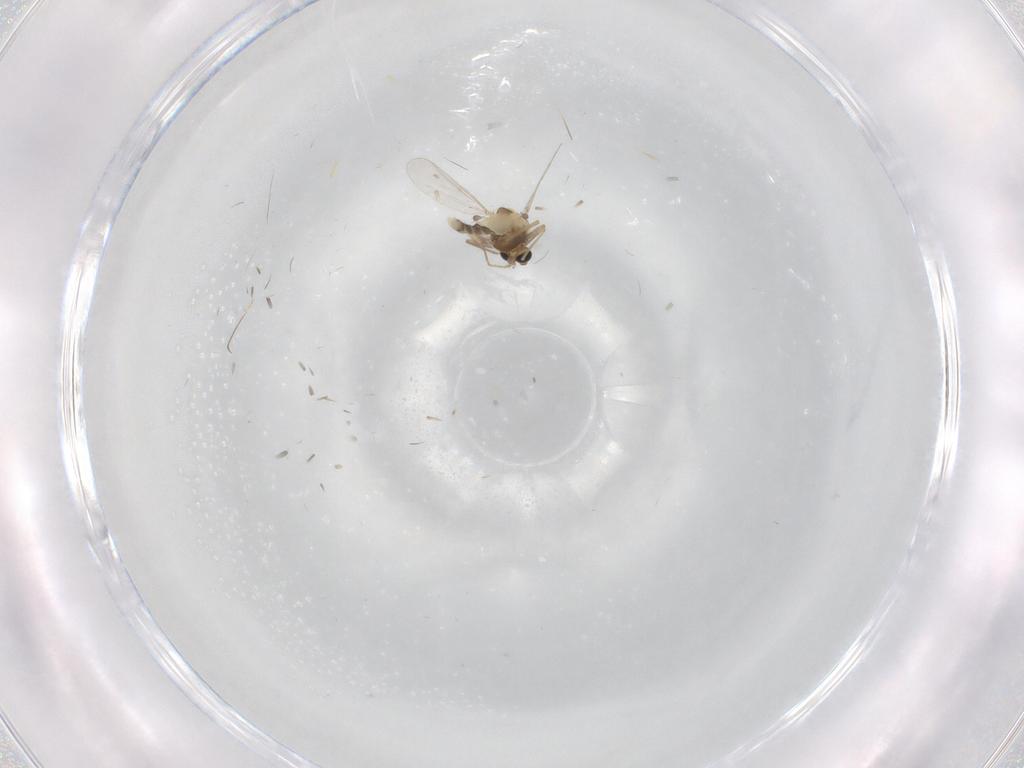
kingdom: Animalia
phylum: Arthropoda
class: Insecta
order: Diptera
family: Chironomidae
